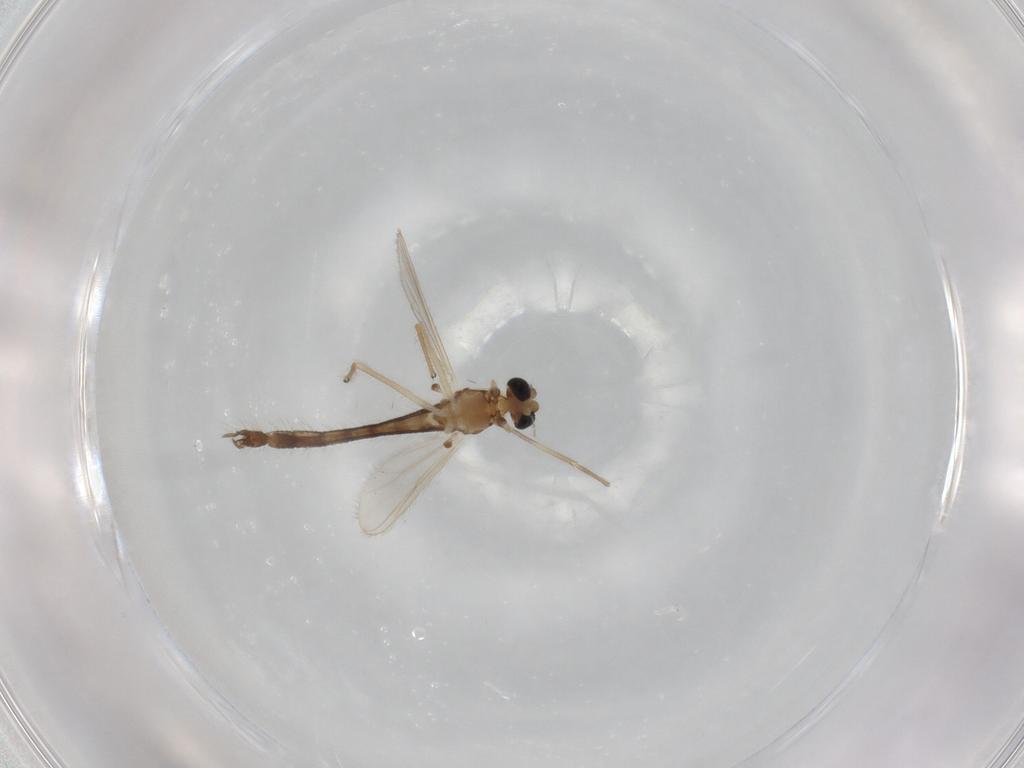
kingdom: Animalia
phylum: Arthropoda
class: Insecta
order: Diptera
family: Chironomidae
